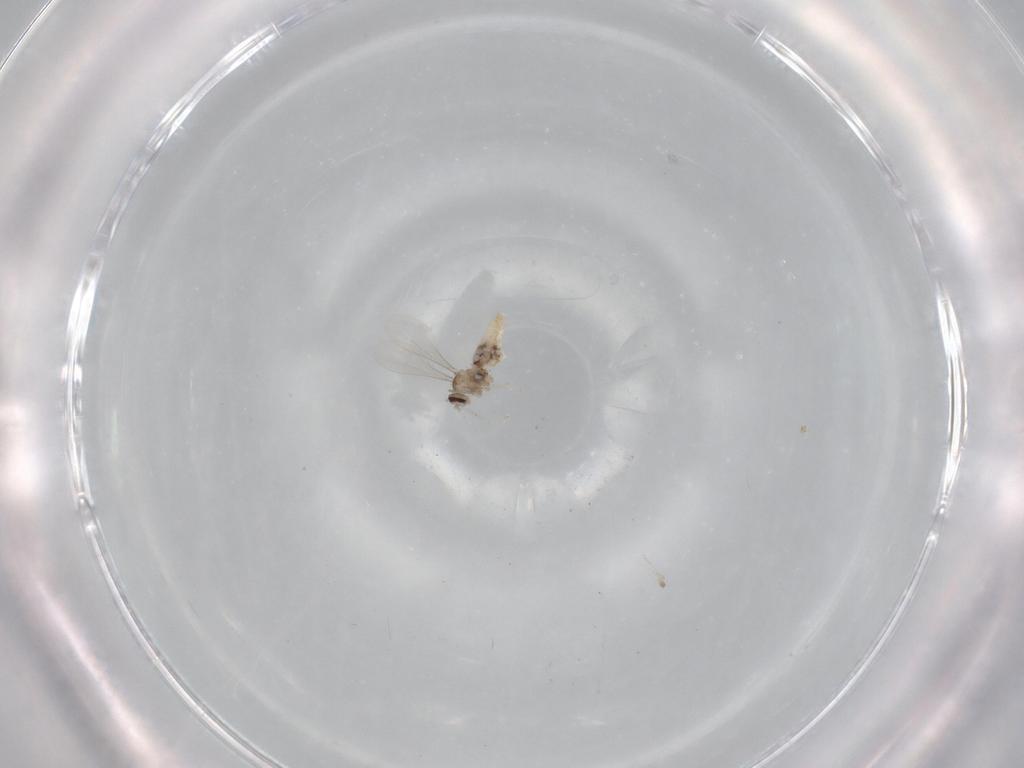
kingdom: Animalia
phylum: Arthropoda
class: Insecta
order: Diptera
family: Cecidomyiidae
